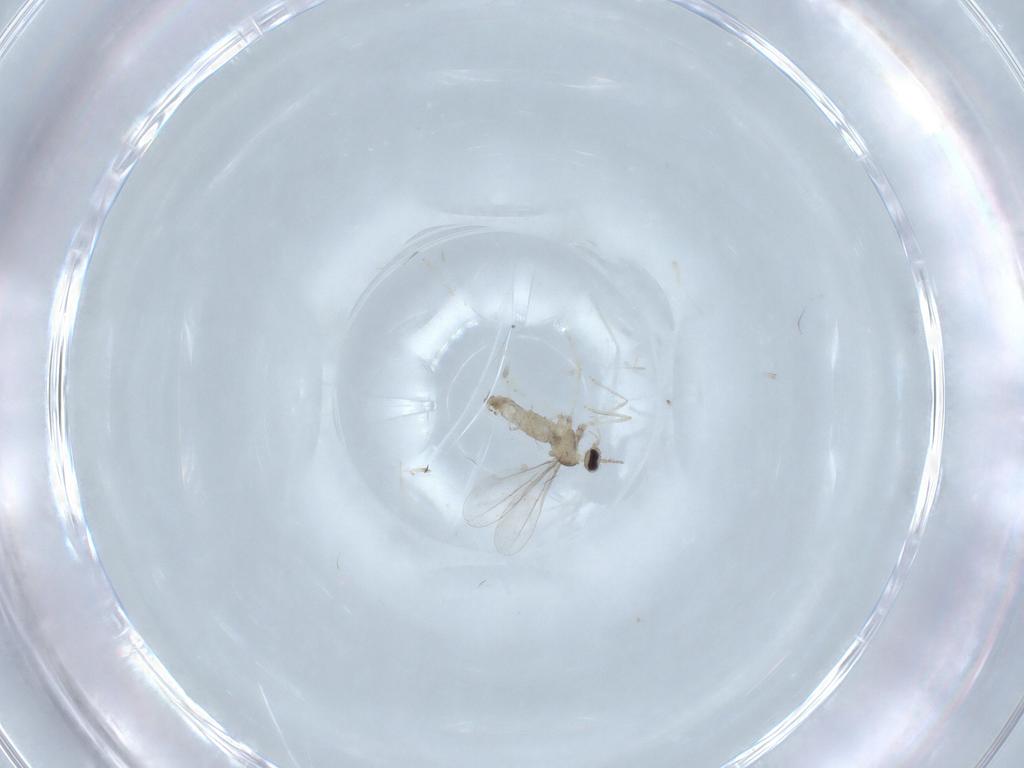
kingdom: Animalia
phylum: Arthropoda
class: Insecta
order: Diptera
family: Cecidomyiidae
